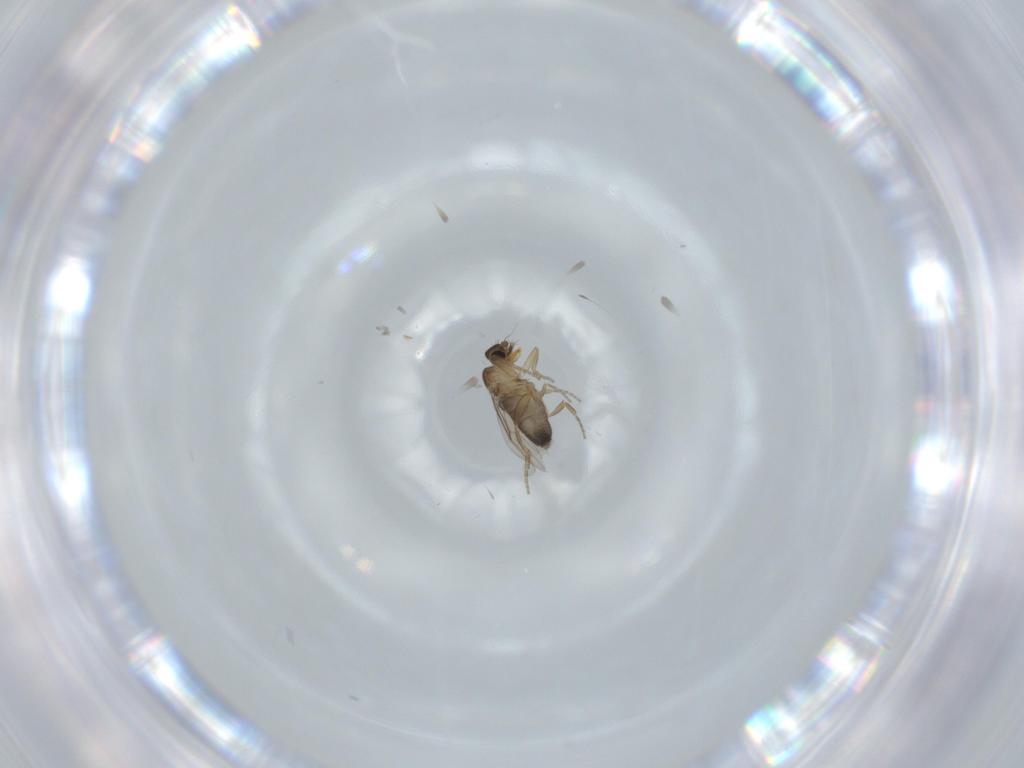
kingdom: Animalia
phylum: Arthropoda
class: Insecta
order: Diptera
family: Phoridae
